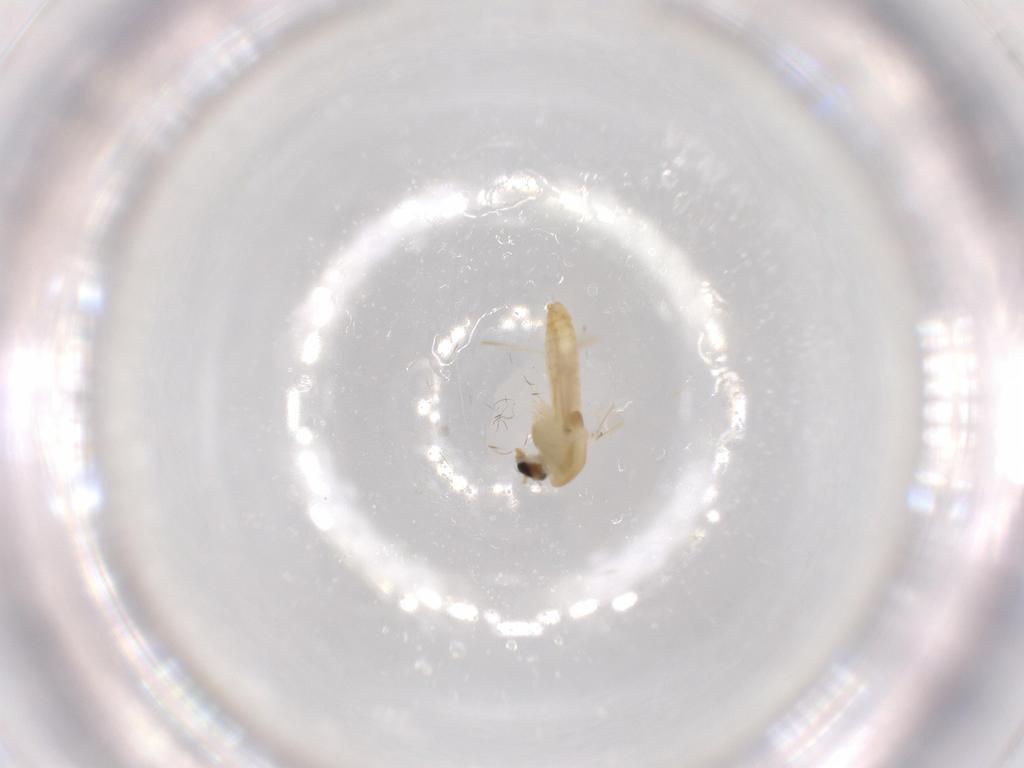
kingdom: Animalia
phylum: Arthropoda
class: Insecta
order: Diptera
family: Chironomidae
